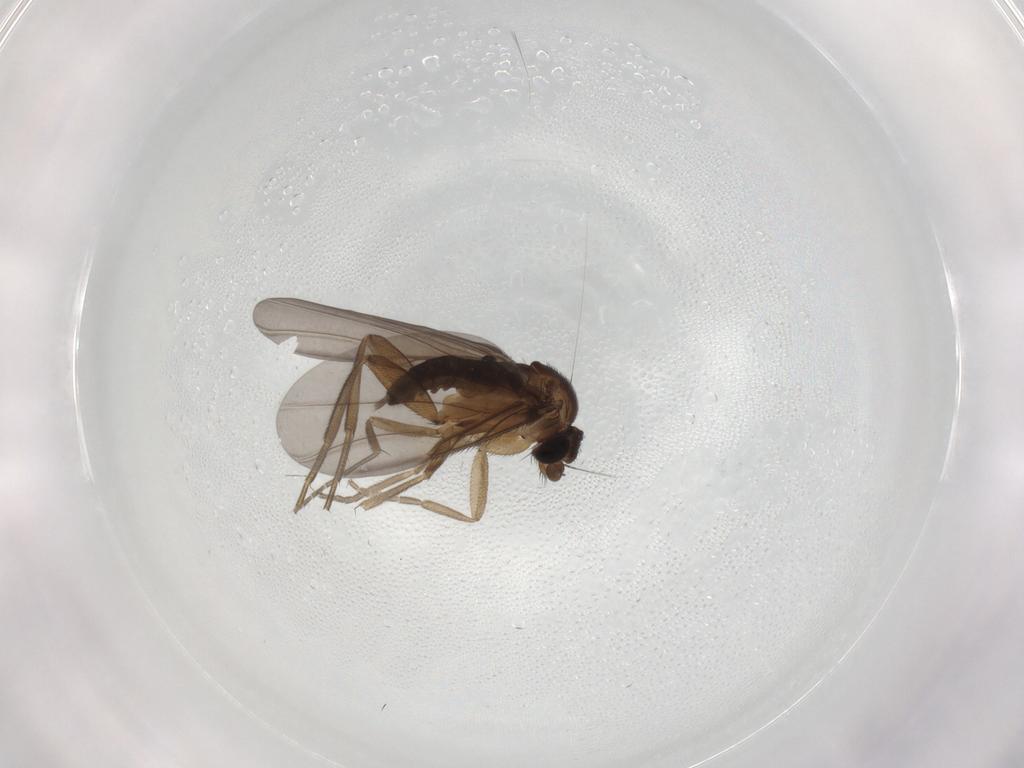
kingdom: Animalia
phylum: Arthropoda
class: Insecta
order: Diptera
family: Phoridae
